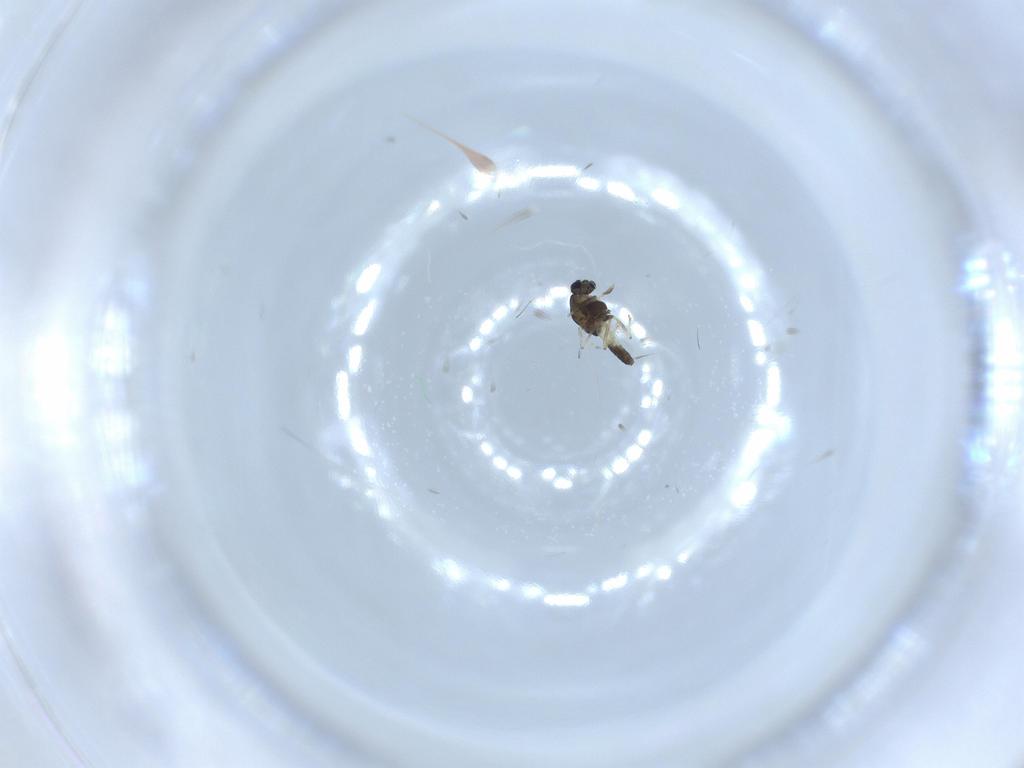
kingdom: Animalia
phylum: Arthropoda
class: Insecta
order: Diptera
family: Sciaridae
